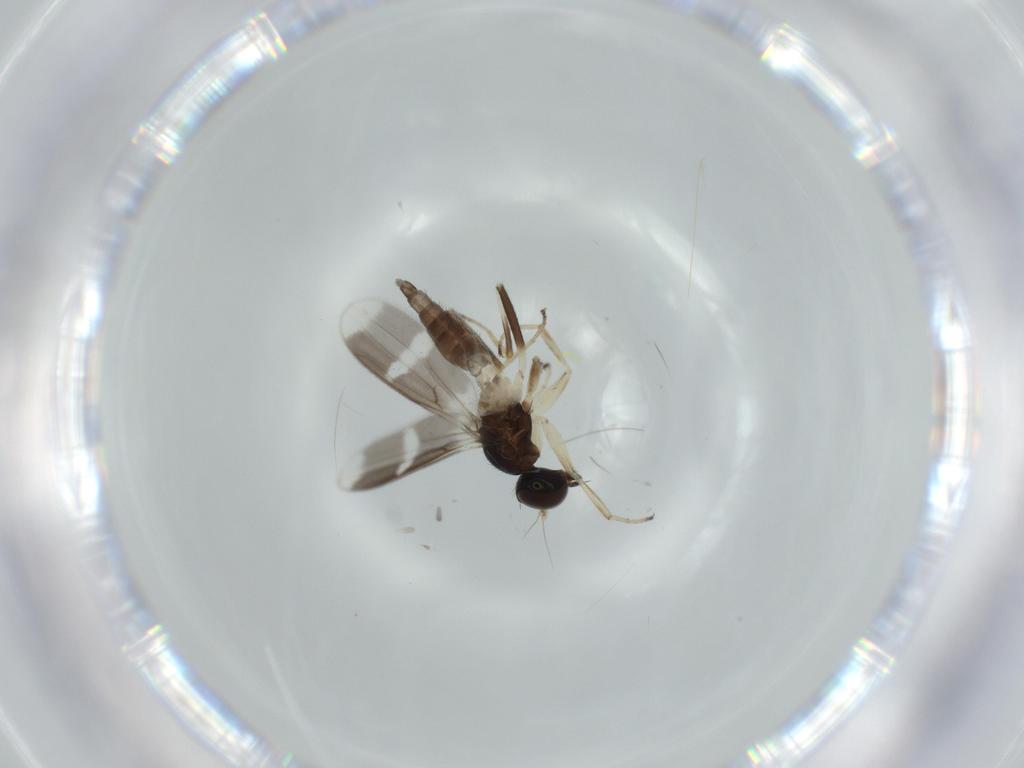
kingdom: Animalia
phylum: Arthropoda
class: Insecta
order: Diptera
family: Hybotidae
